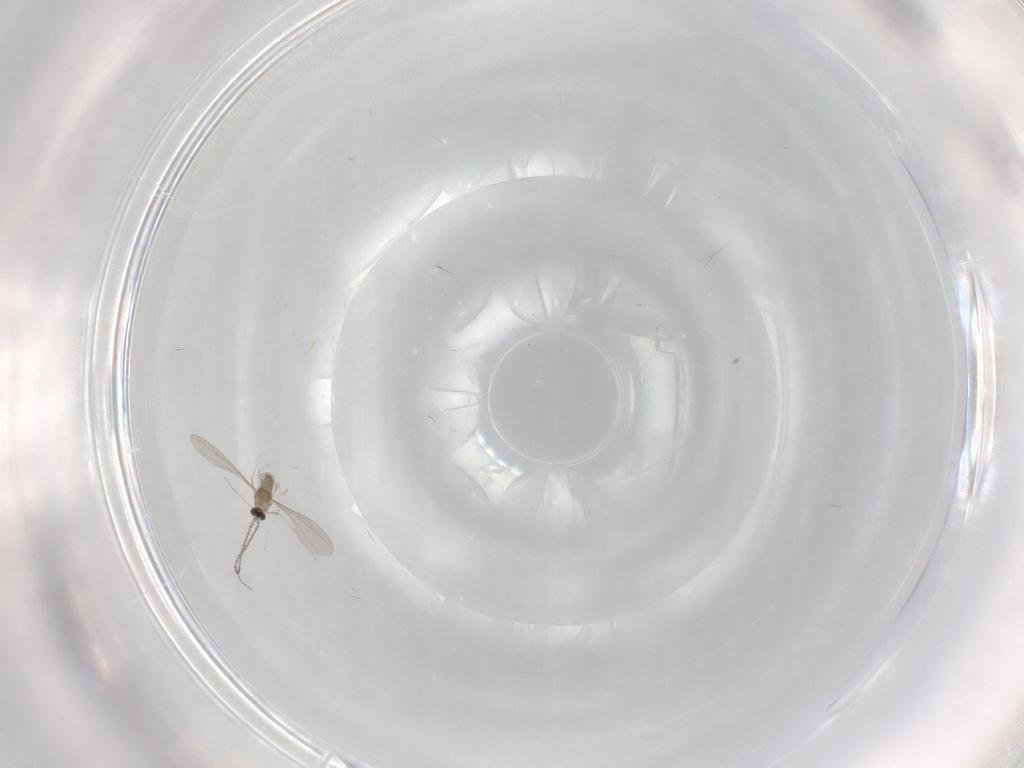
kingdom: Animalia
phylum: Arthropoda
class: Insecta
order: Diptera
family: Cecidomyiidae
